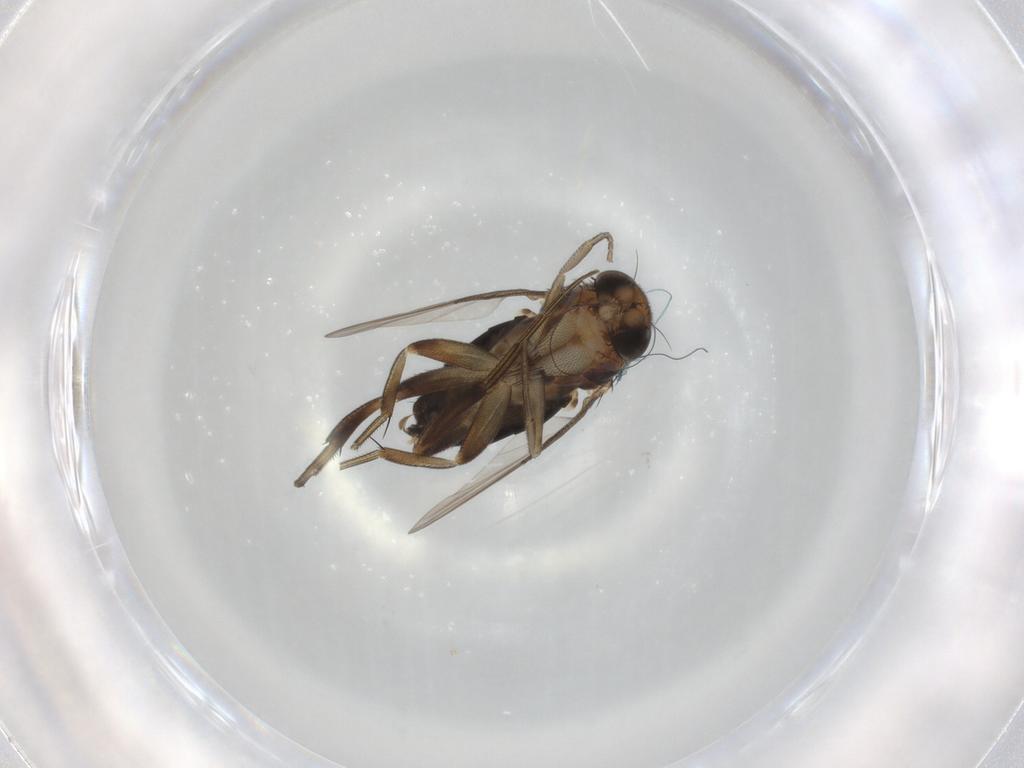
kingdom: Animalia
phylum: Arthropoda
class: Insecta
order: Diptera
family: Phoridae
